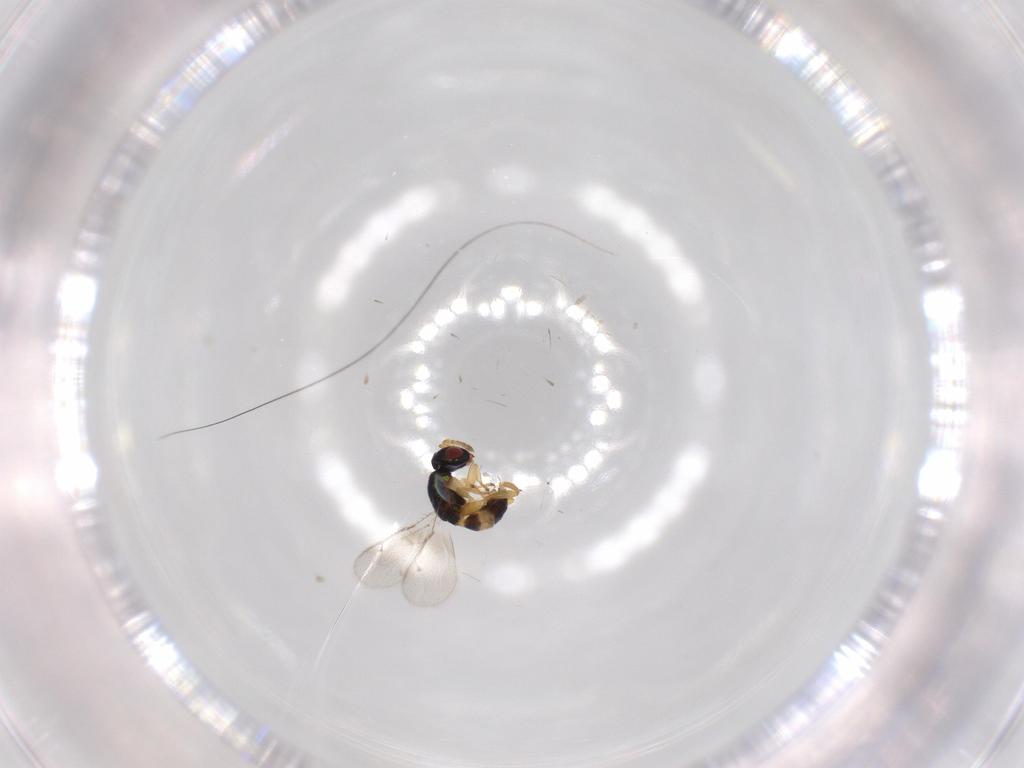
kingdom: Animalia
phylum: Arthropoda
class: Insecta
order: Hymenoptera
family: Torymidae
